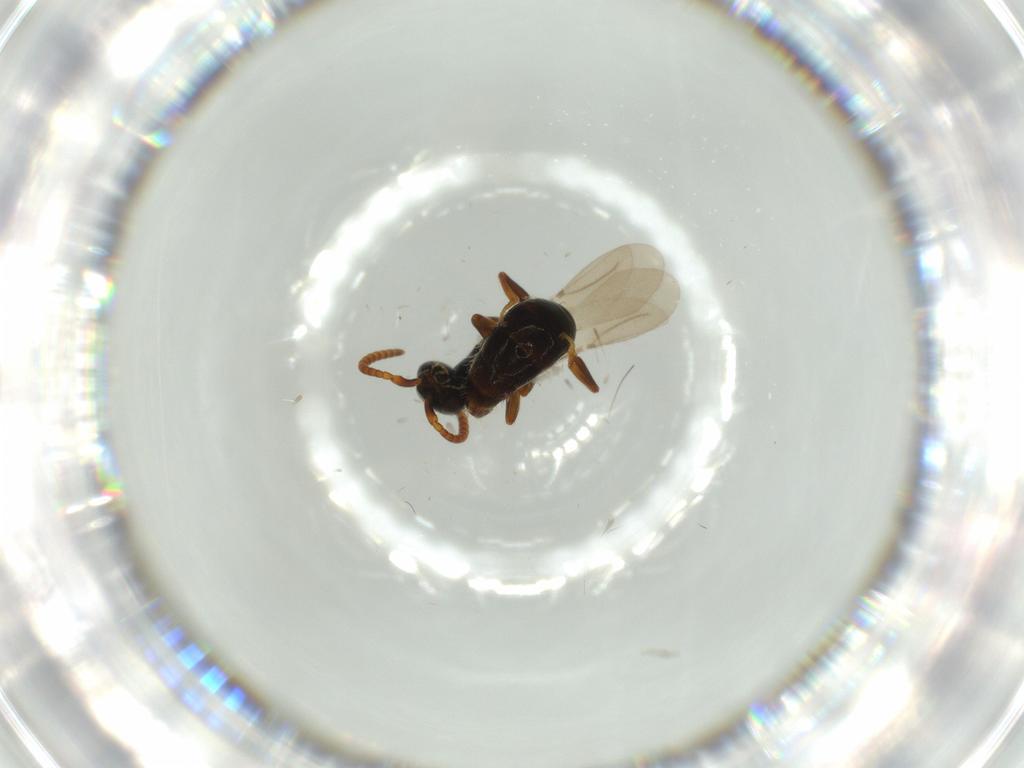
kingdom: Animalia
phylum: Arthropoda
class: Insecta
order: Hymenoptera
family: Bethylidae
